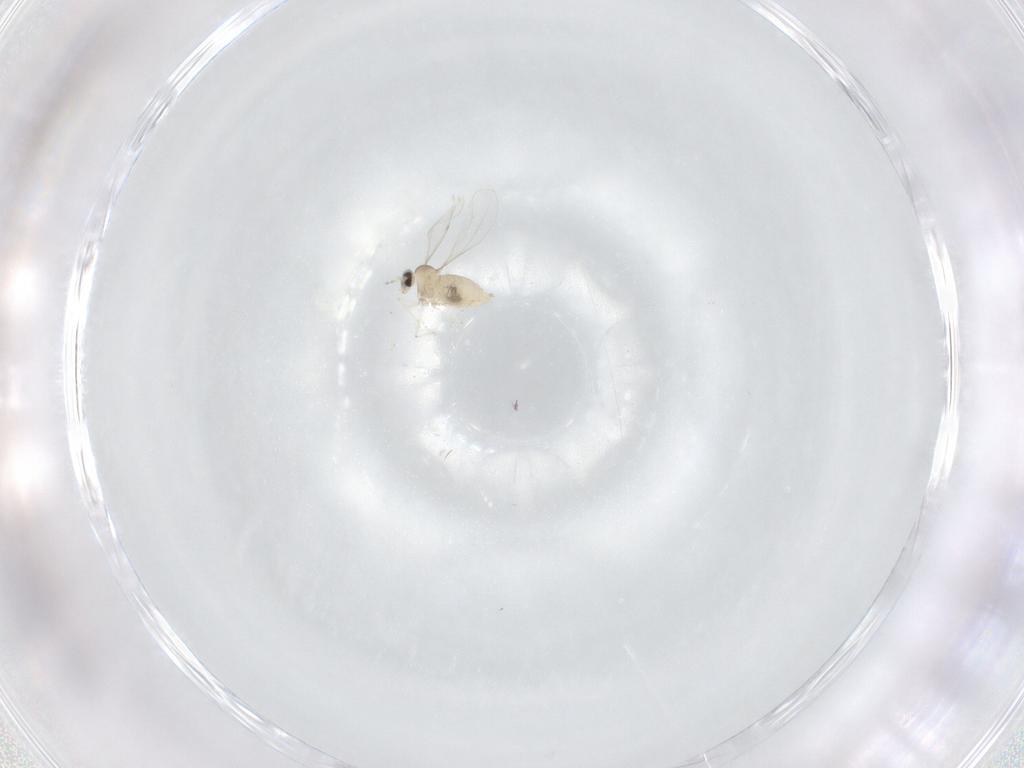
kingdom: Animalia
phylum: Arthropoda
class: Insecta
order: Diptera
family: Cecidomyiidae
